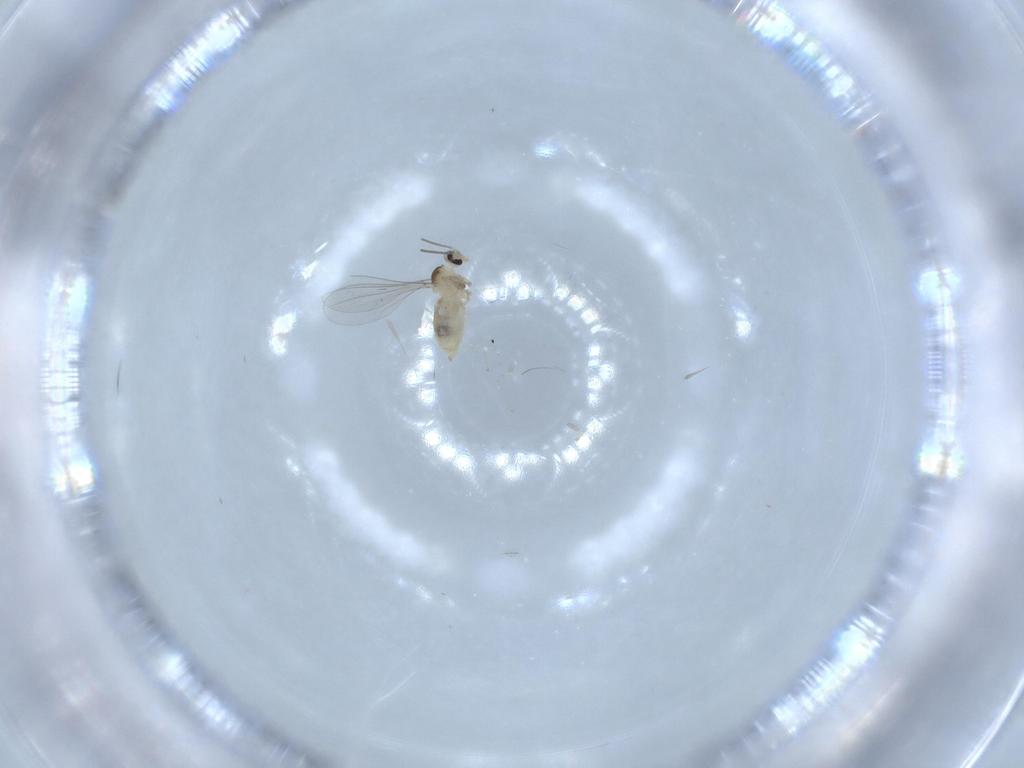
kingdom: Animalia
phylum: Arthropoda
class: Insecta
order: Diptera
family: Cecidomyiidae
